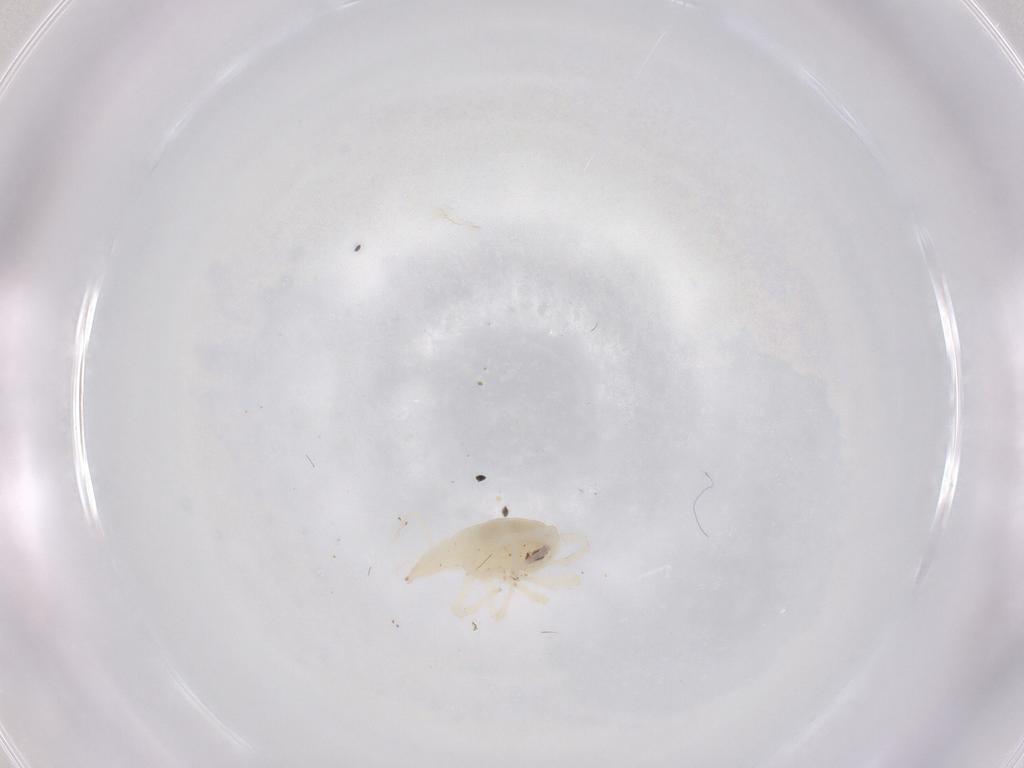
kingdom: Animalia
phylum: Arthropoda
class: Arachnida
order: Trombidiformes
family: Bdellidae
